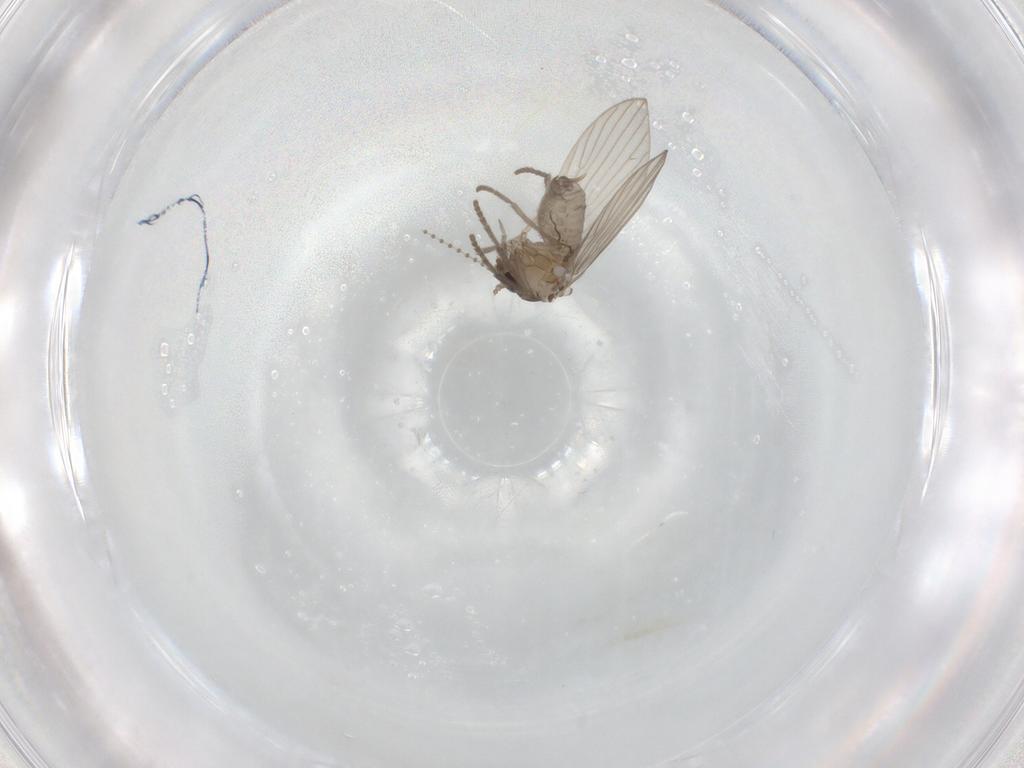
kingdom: Animalia
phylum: Arthropoda
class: Insecta
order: Diptera
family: Psychodidae
